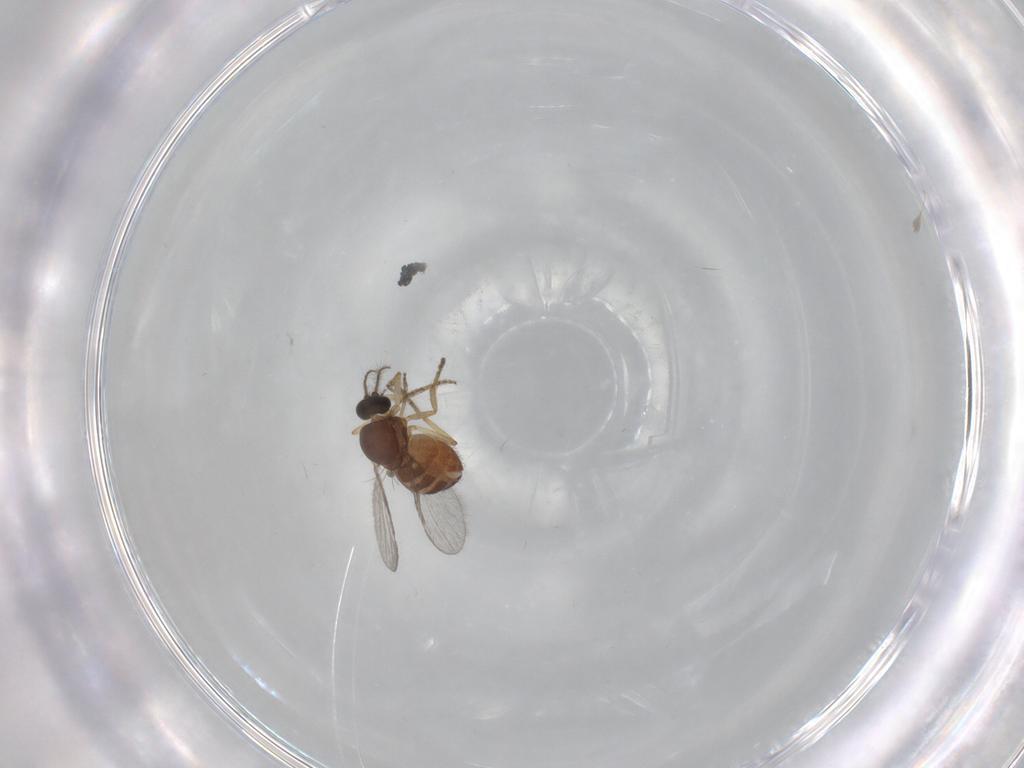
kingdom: Animalia
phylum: Arthropoda
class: Insecta
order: Diptera
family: Ceratopogonidae
